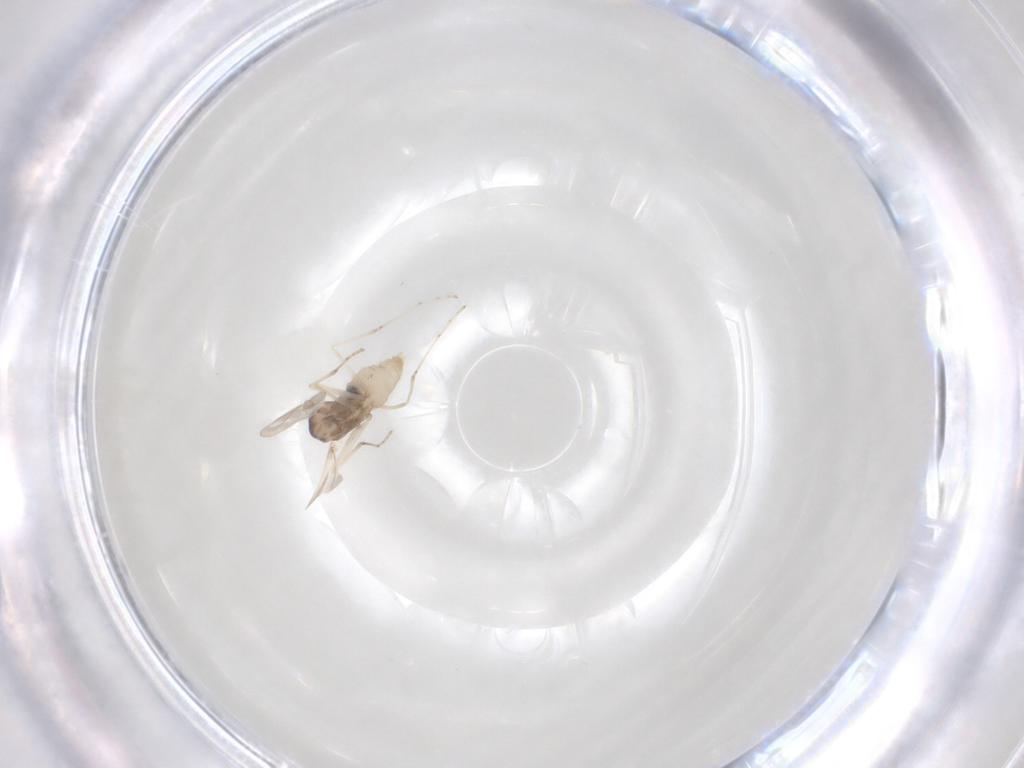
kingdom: Animalia
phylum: Arthropoda
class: Insecta
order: Diptera
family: Cecidomyiidae
